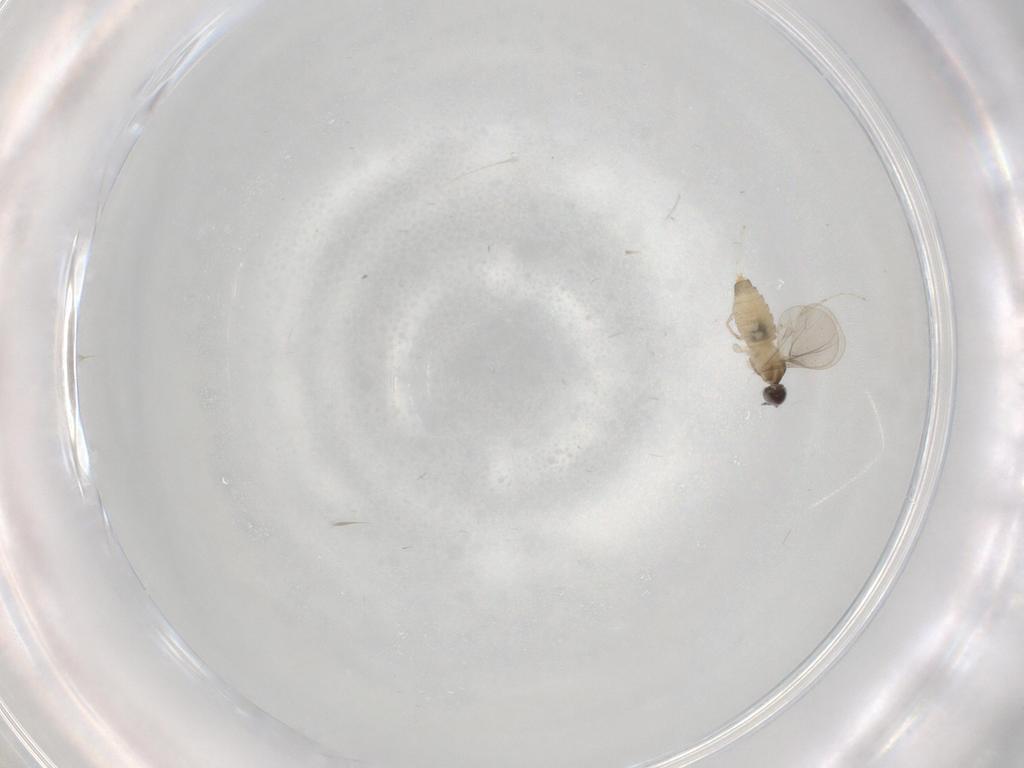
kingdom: Animalia
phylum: Arthropoda
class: Insecta
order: Diptera
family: Cecidomyiidae
